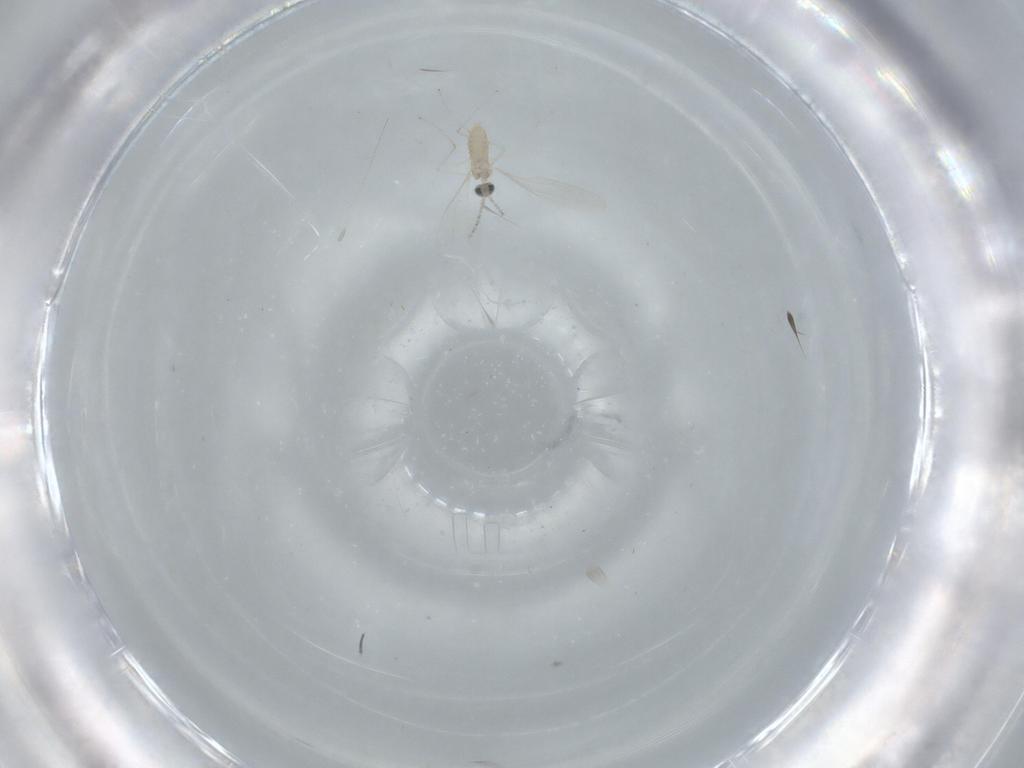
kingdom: Animalia
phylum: Arthropoda
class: Insecta
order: Diptera
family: Cecidomyiidae
